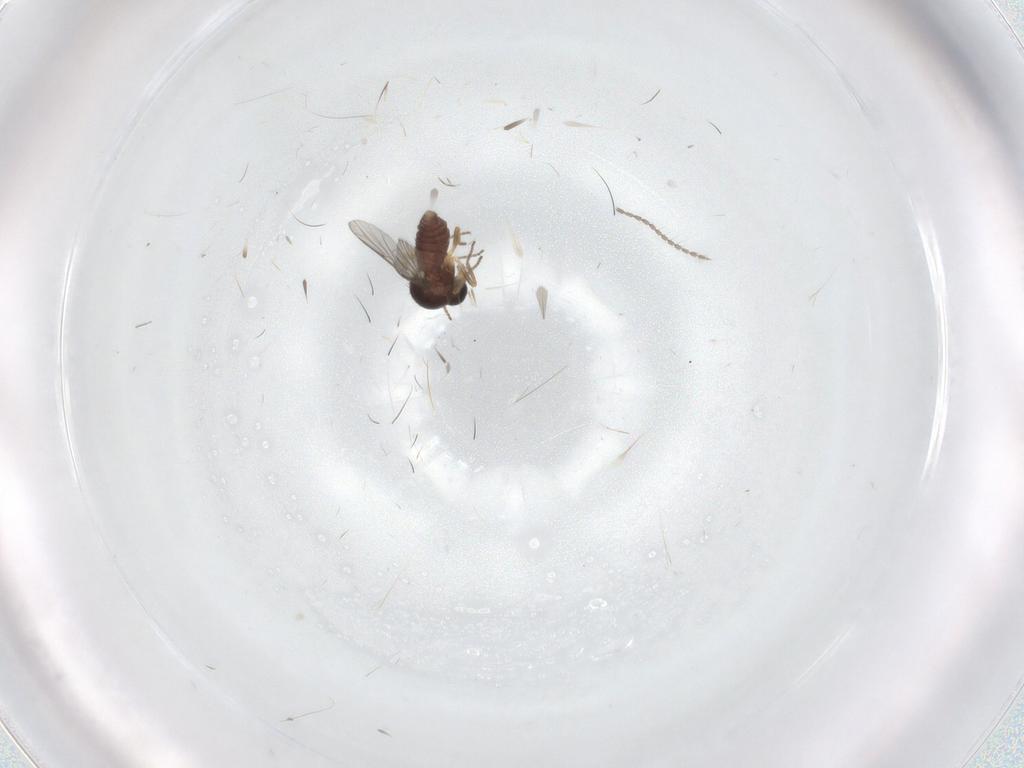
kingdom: Animalia
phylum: Arthropoda
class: Insecta
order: Diptera
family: Ceratopogonidae
